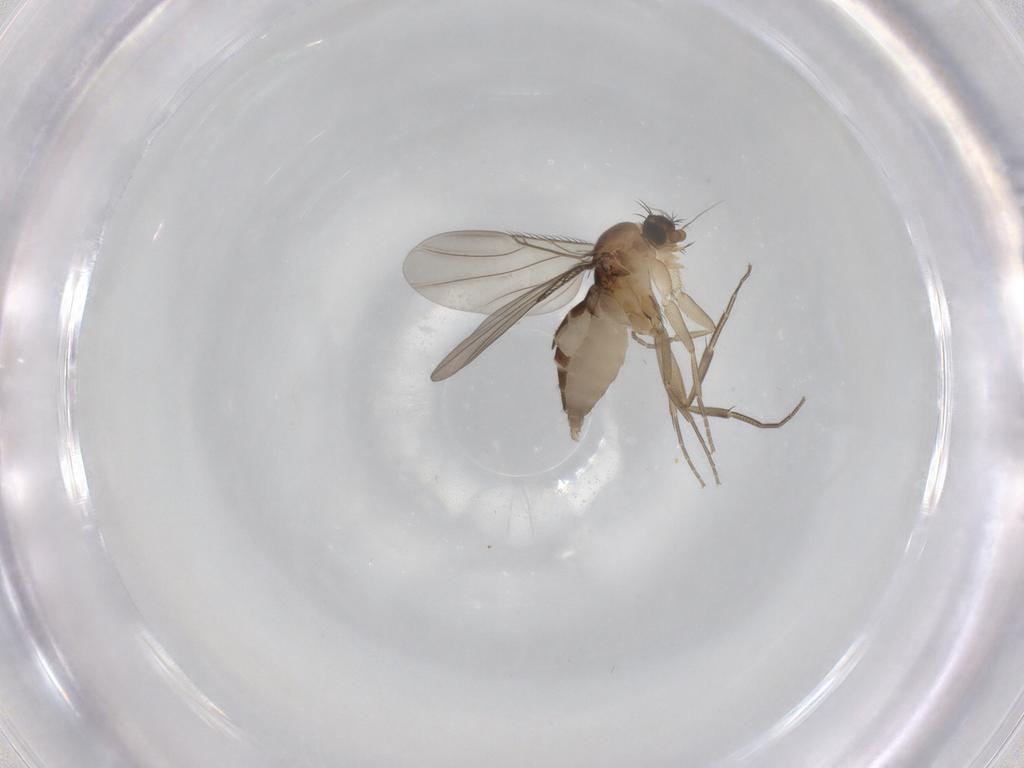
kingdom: Animalia
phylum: Arthropoda
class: Insecta
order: Diptera
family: Phoridae
